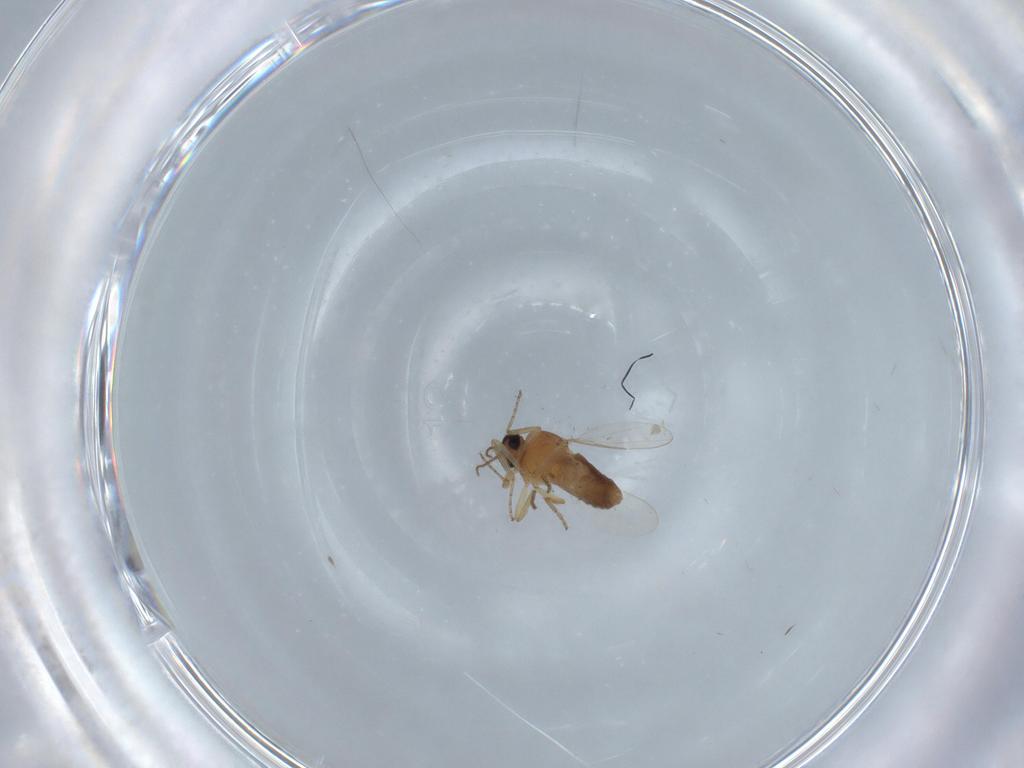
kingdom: Animalia
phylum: Arthropoda
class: Insecta
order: Diptera
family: Ceratopogonidae
